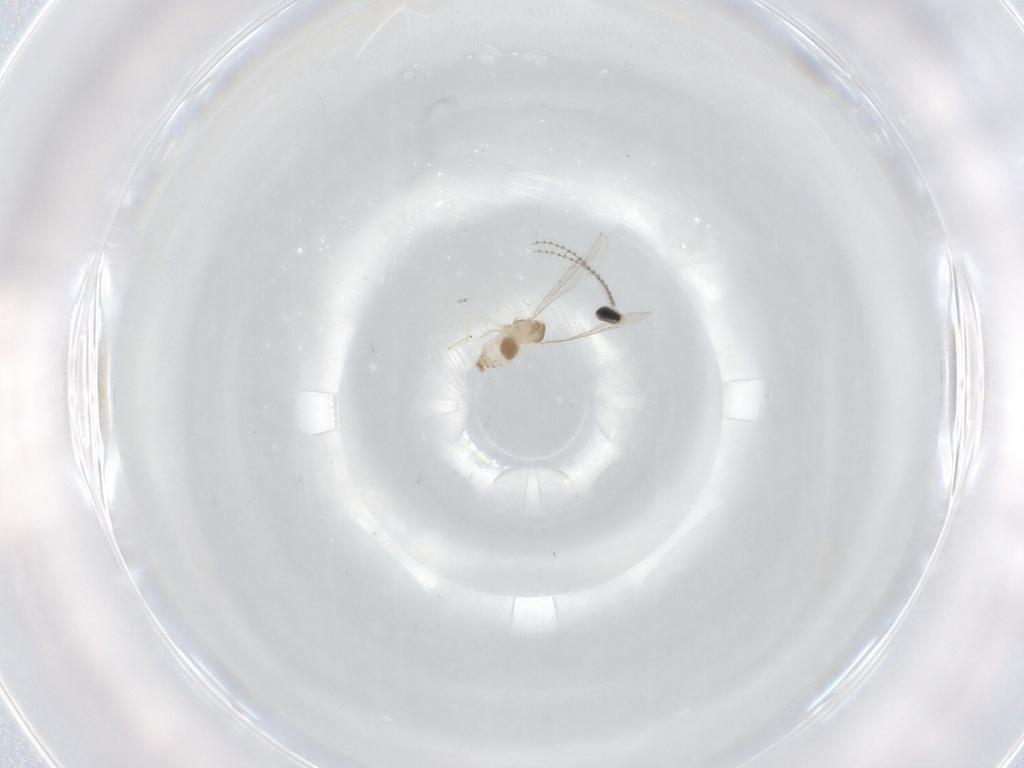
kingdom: Animalia
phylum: Arthropoda
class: Insecta
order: Diptera
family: Cecidomyiidae
